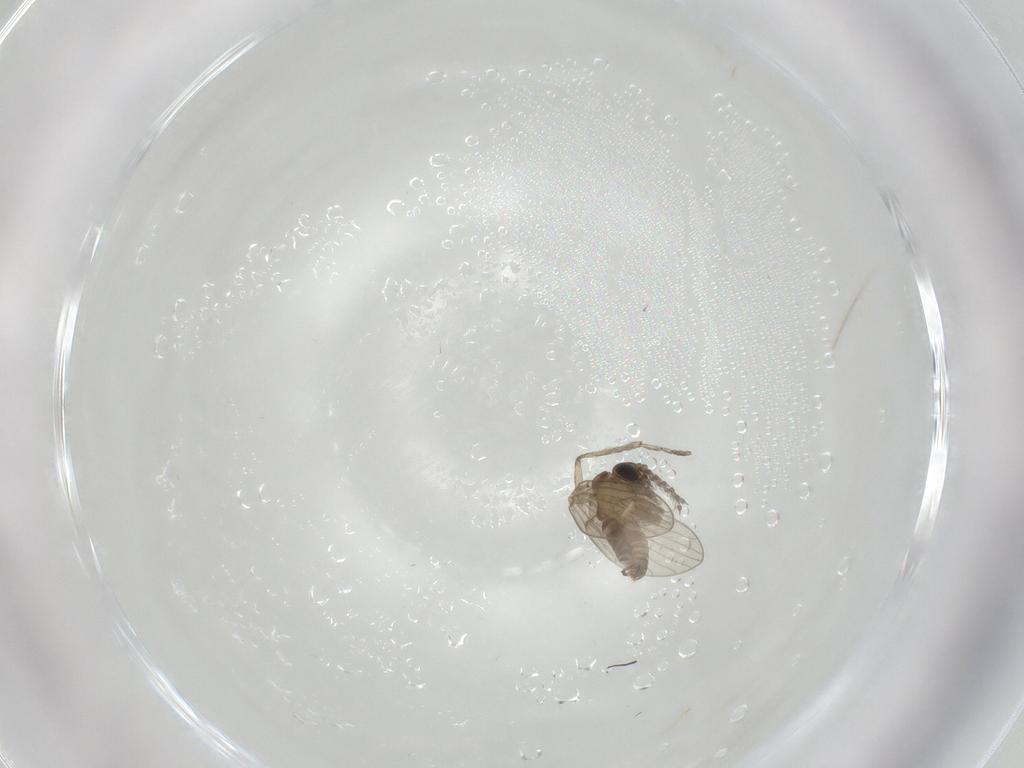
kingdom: Animalia
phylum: Arthropoda
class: Insecta
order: Diptera
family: Psychodidae
